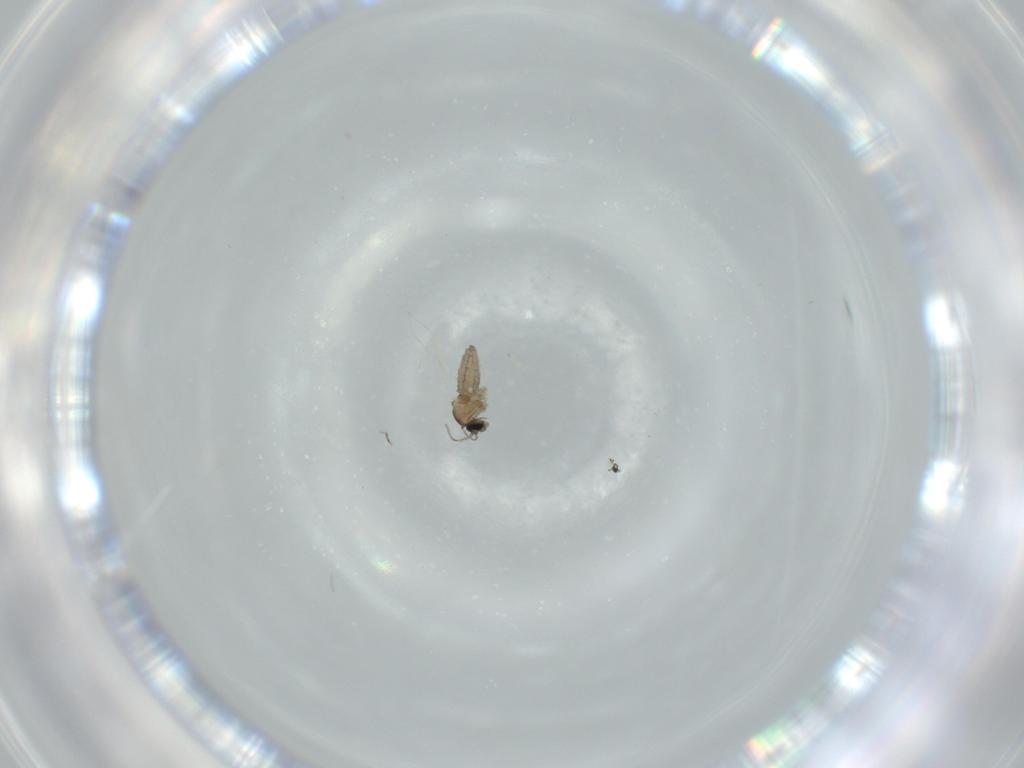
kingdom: Animalia
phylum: Arthropoda
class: Insecta
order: Diptera
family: Cecidomyiidae
